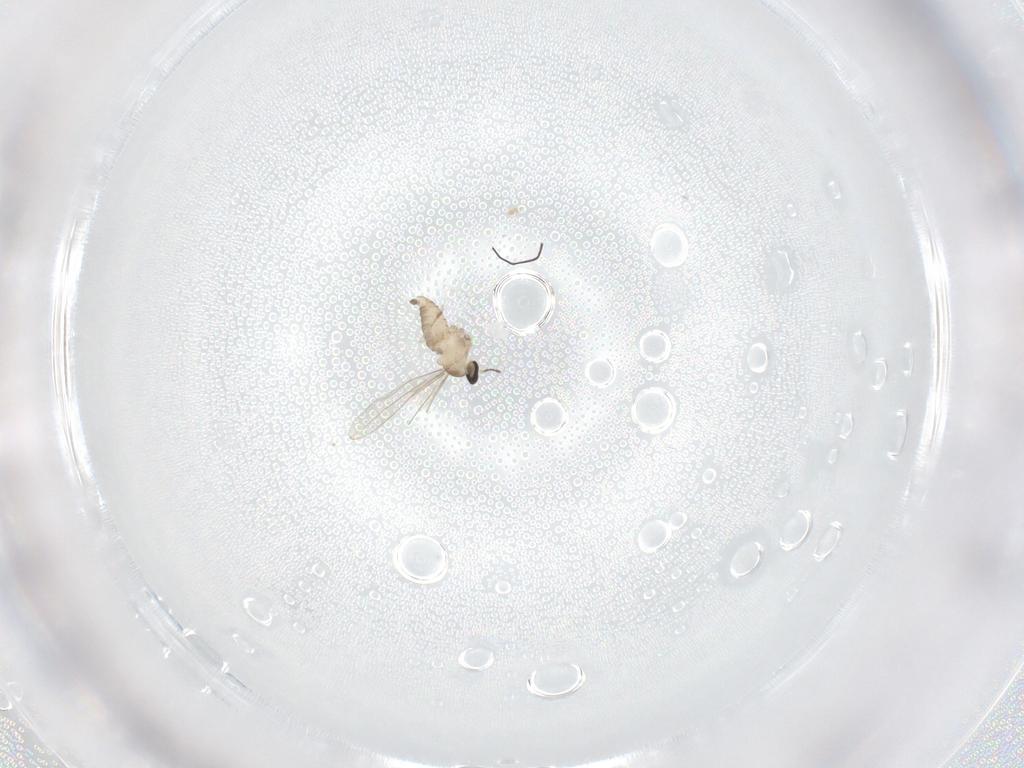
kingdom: Animalia
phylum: Arthropoda
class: Insecta
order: Diptera
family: Cecidomyiidae
